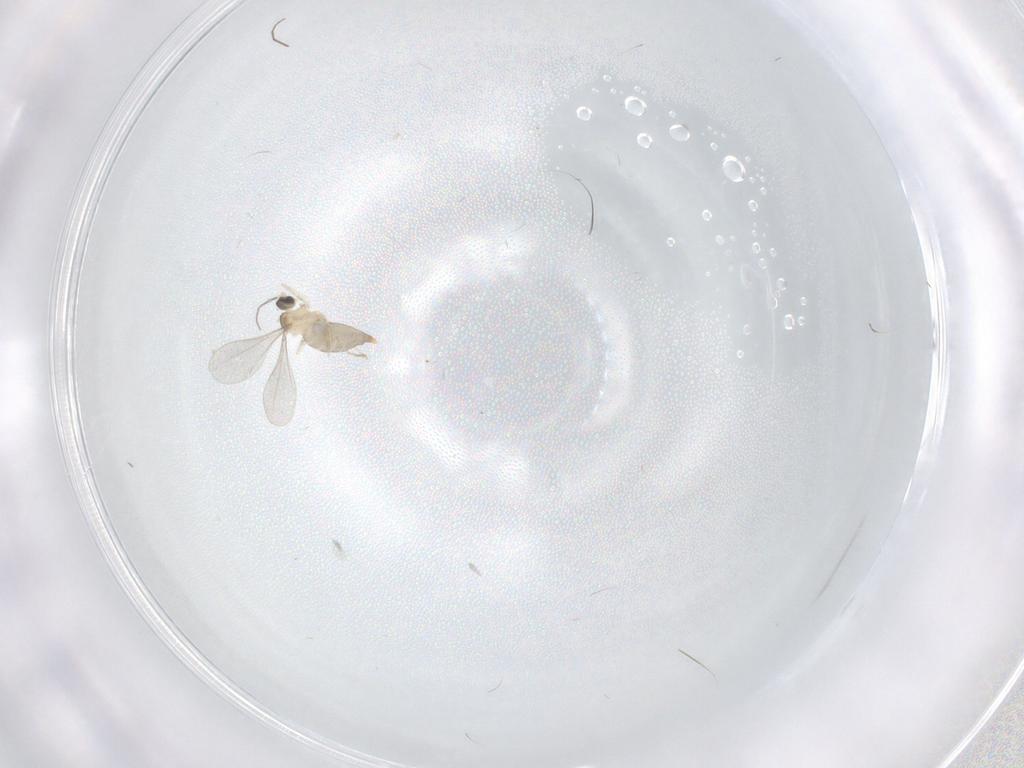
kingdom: Animalia
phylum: Arthropoda
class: Insecta
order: Diptera
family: Cecidomyiidae
